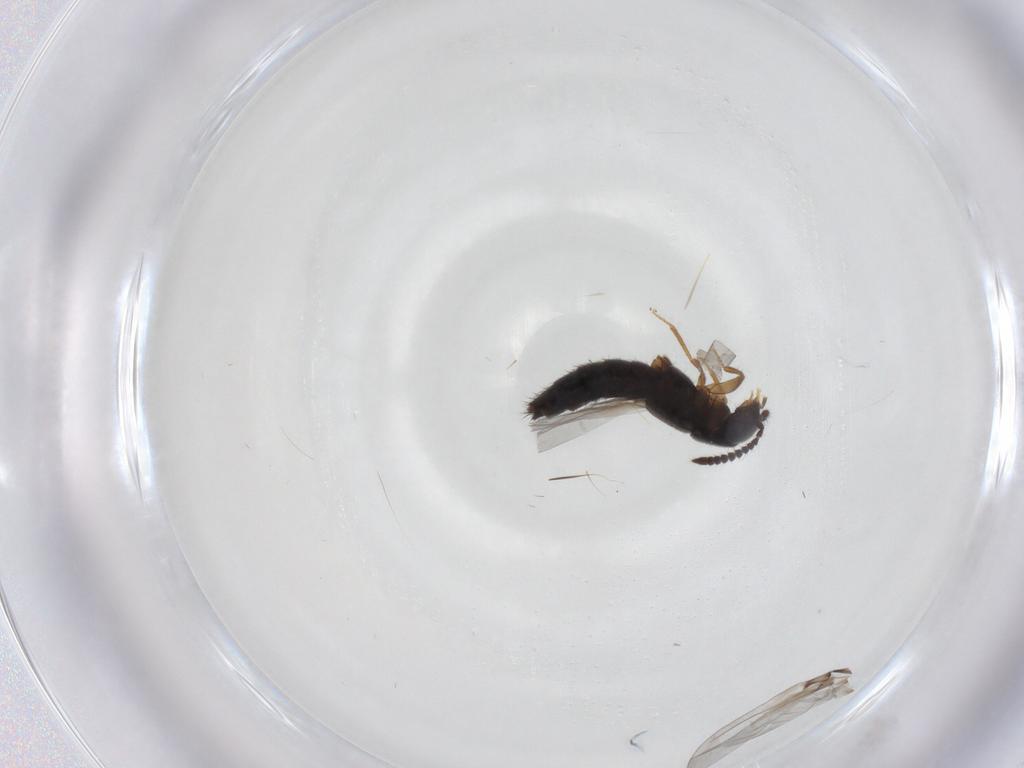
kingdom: Animalia
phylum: Arthropoda
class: Insecta
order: Coleoptera
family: Staphylinidae
